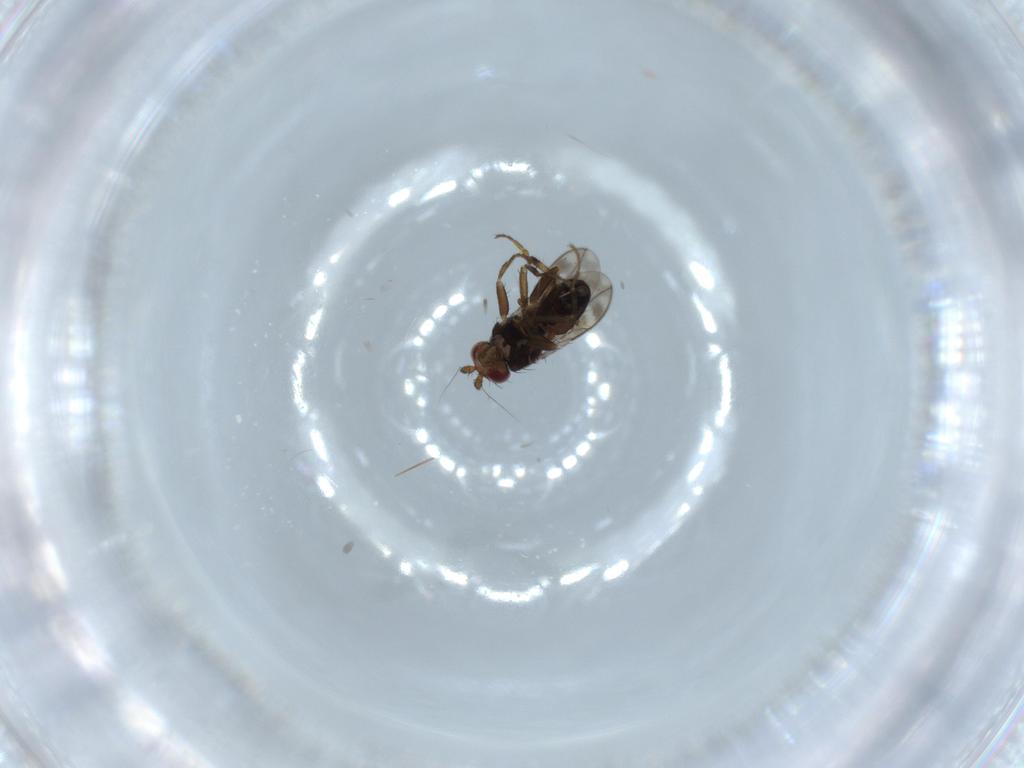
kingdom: Animalia
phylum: Arthropoda
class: Insecta
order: Diptera
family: Sphaeroceridae
